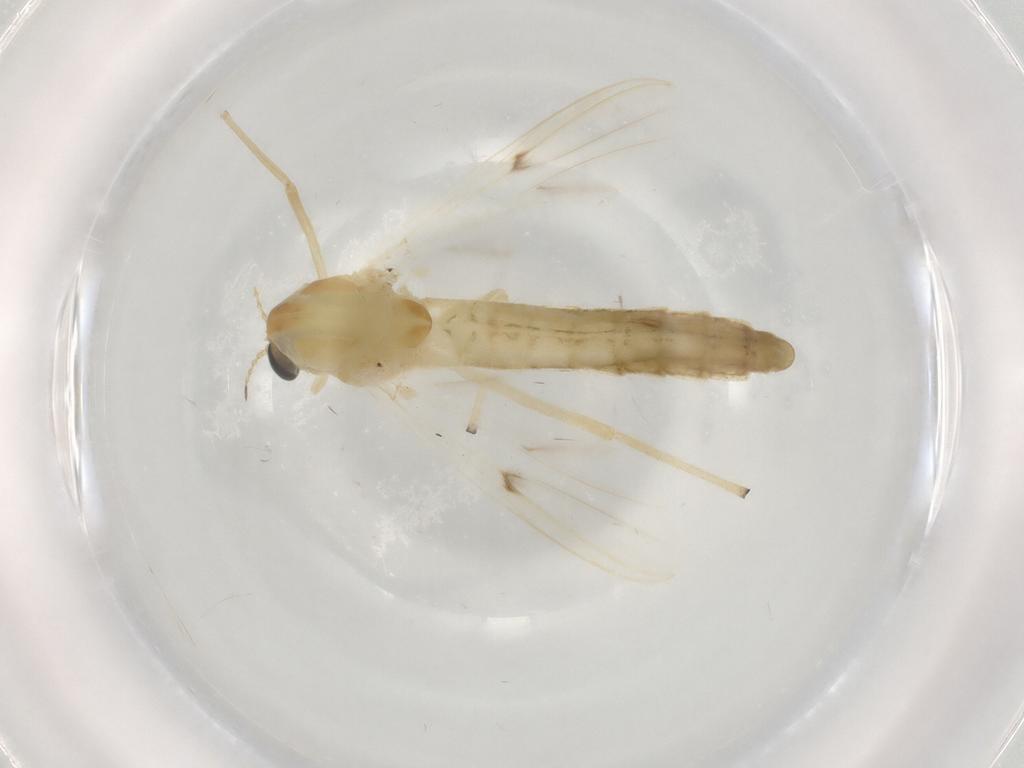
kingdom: Animalia
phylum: Arthropoda
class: Insecta
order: Diptera
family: Chironomidae
